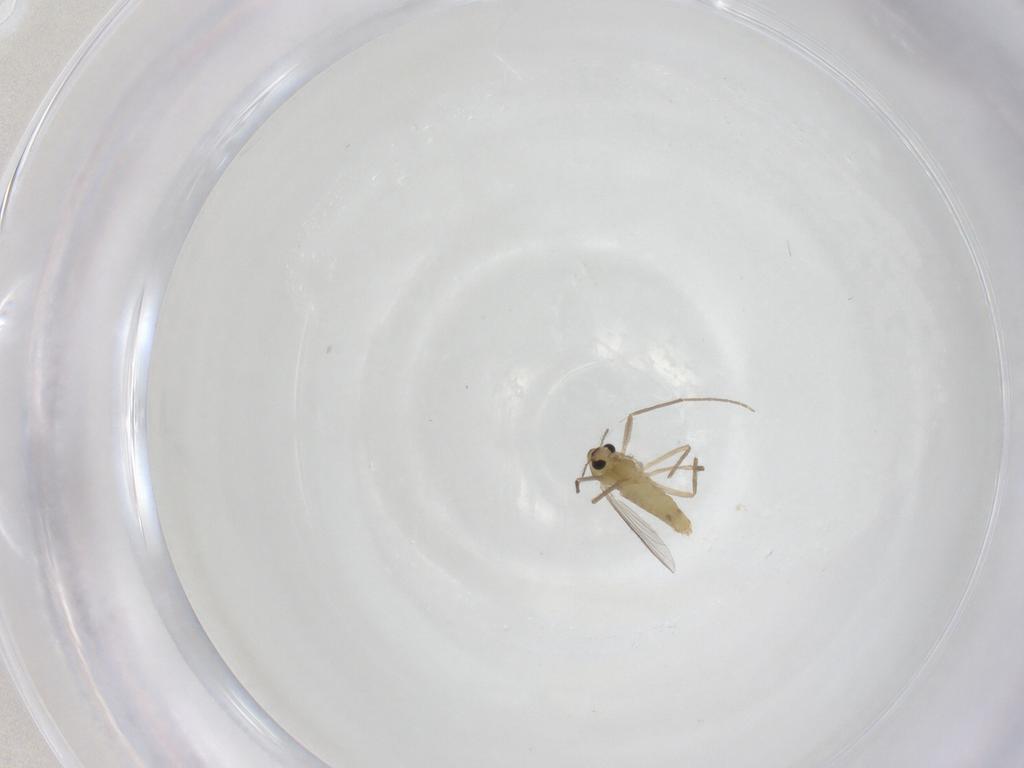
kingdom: Animalia
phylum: Arthropoda
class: Insecta
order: Diptera
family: Chironomidae
